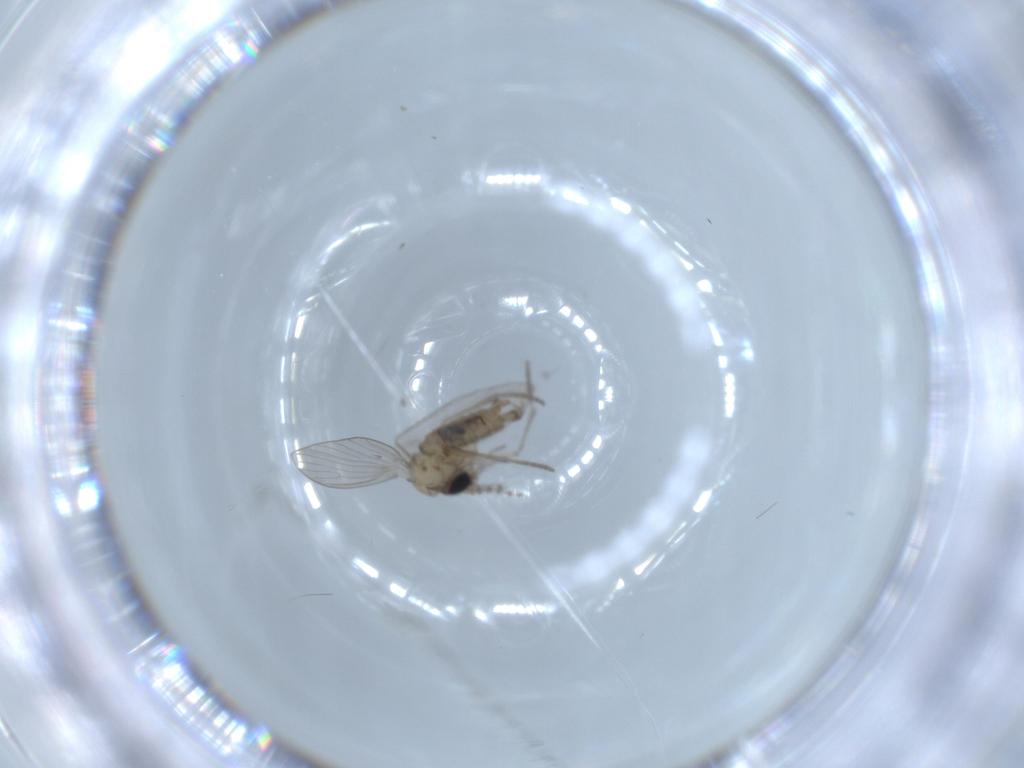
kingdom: Animalia
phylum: Arthropoda
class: Insecta
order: Diptera
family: Psychodidae
